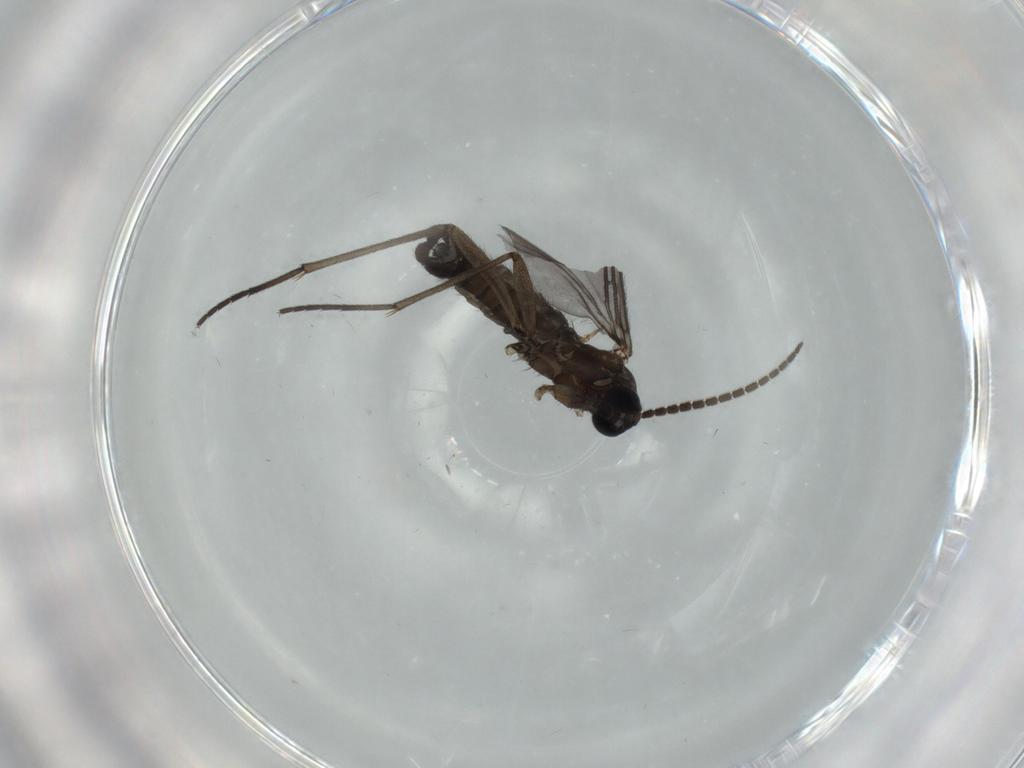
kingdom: Animalia
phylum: Arthropoda
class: Insecta
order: Diptera
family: Sciaridae
